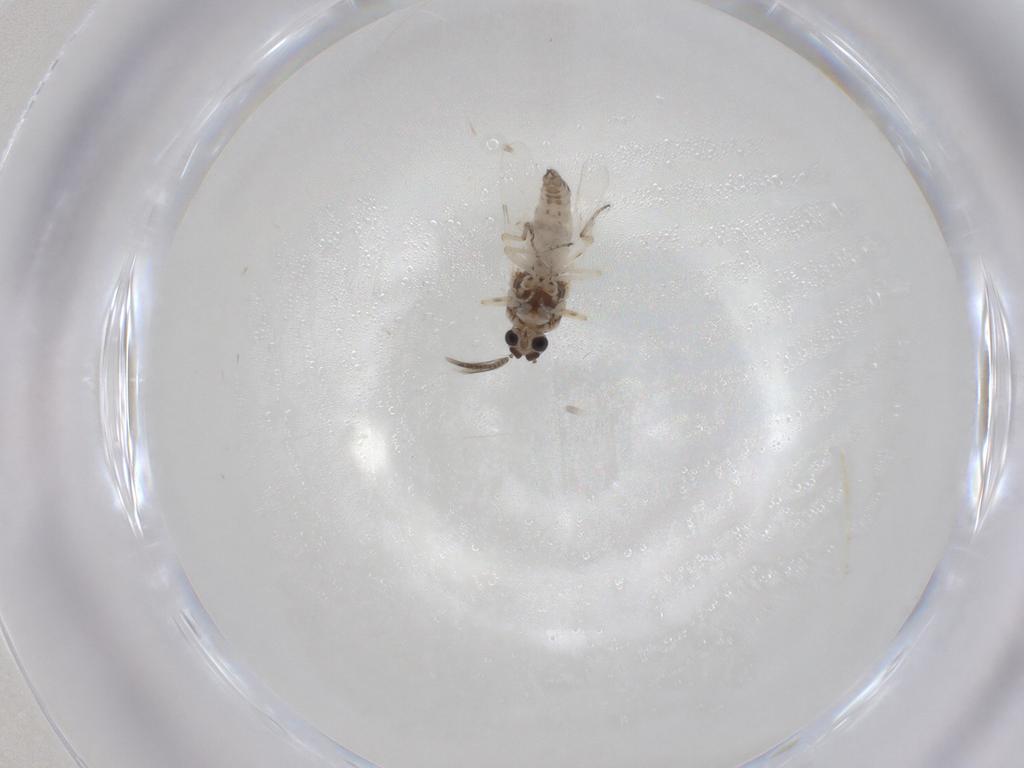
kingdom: Animalia
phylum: Arthropoda
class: Insecta
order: Diptera
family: Ceratopogonidae
